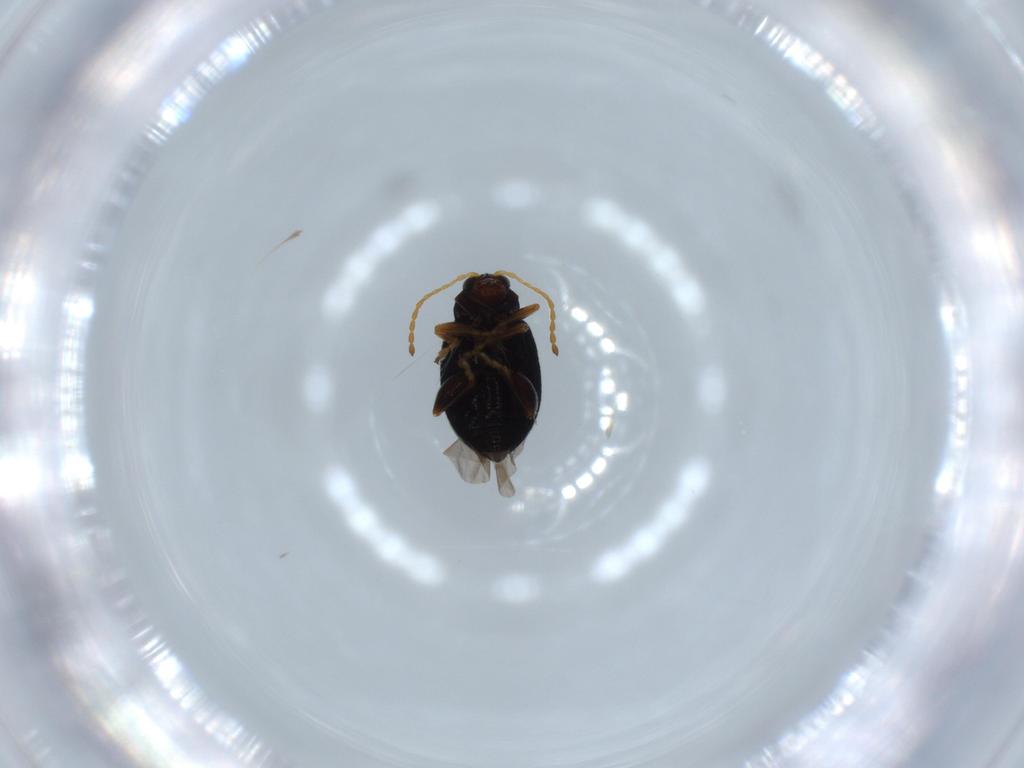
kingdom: Animalia
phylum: Arthropoda
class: Insecta
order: Coleoptera
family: Chrysomelidae
